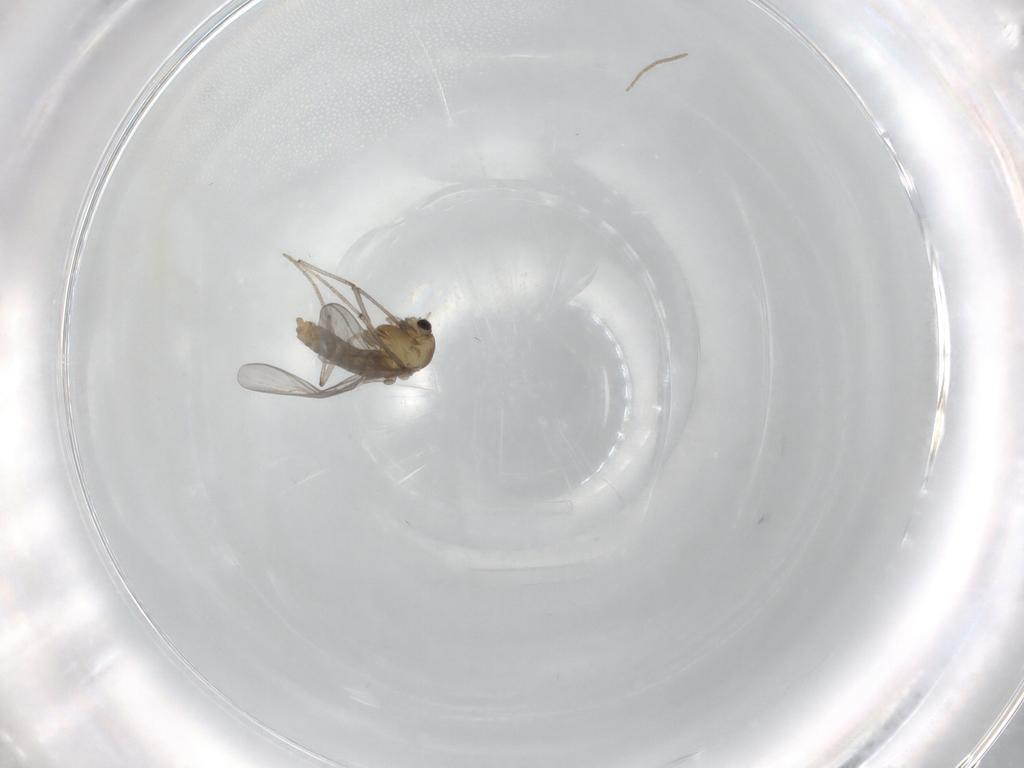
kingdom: Animalia
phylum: Arthropoda
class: Insecta
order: Diptera
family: Chironomidae
